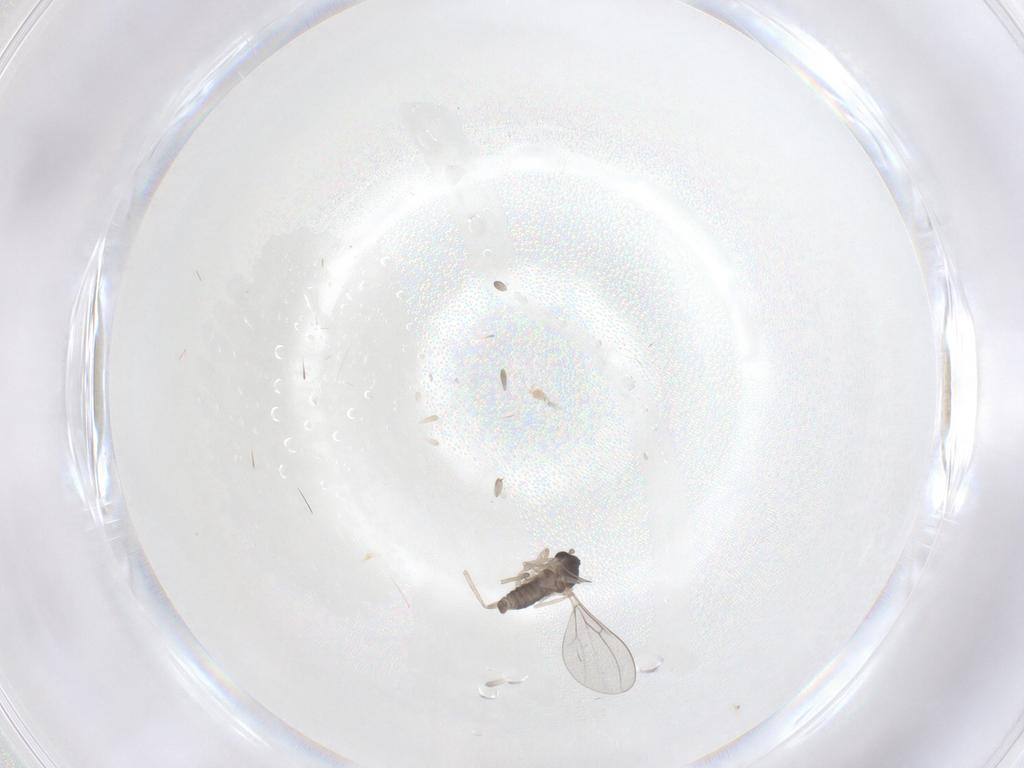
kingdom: Animalia
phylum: Arthropoda
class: Insecta
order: Diptera
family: Cecidomyiidae
